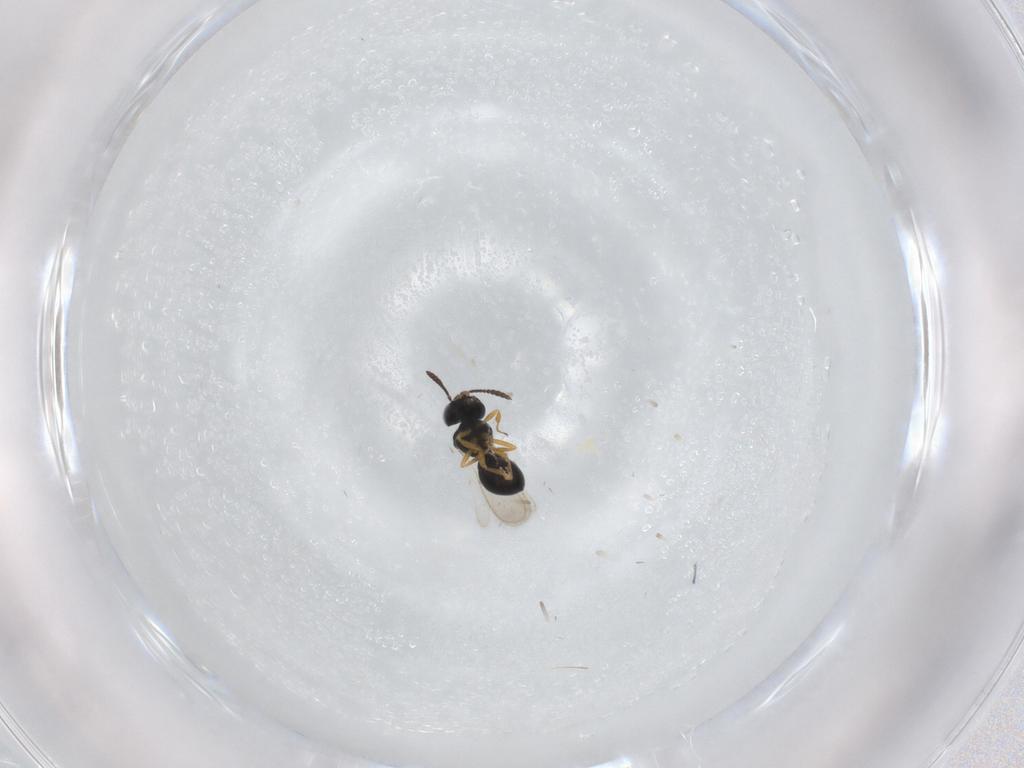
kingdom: Animalia
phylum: Arthropoda
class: Insecta
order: Hymenoptera
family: Scelionidae
